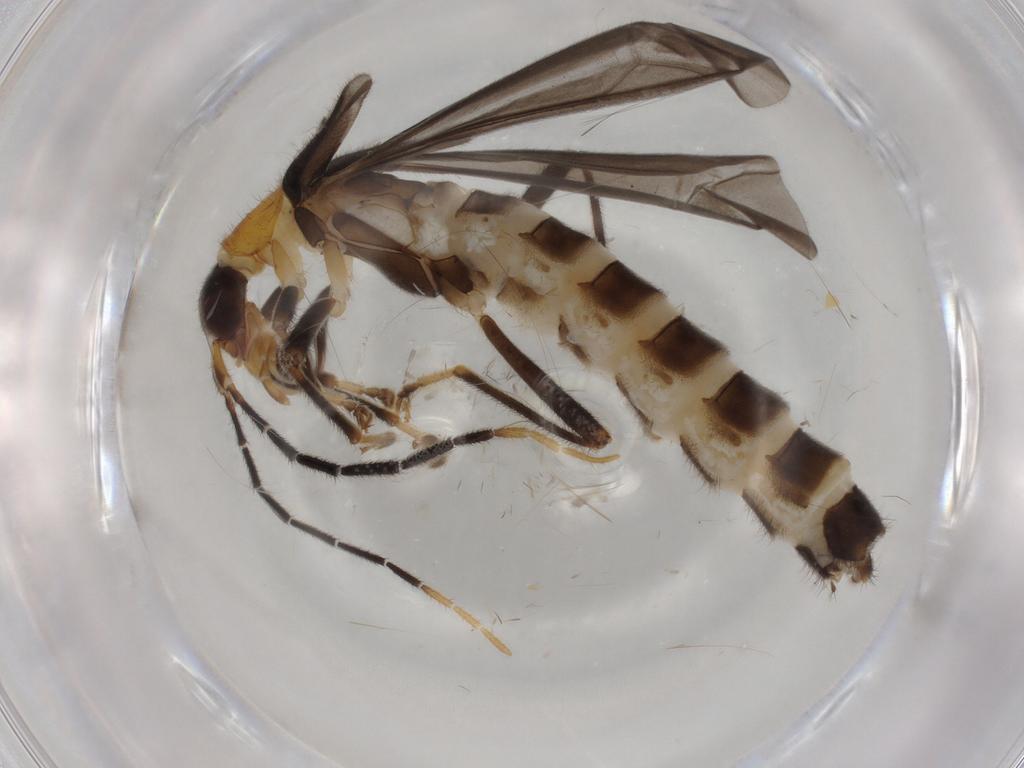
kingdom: Animalia
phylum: Arthropoda
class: Insecta
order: Coleoptera
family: Cantharidae
